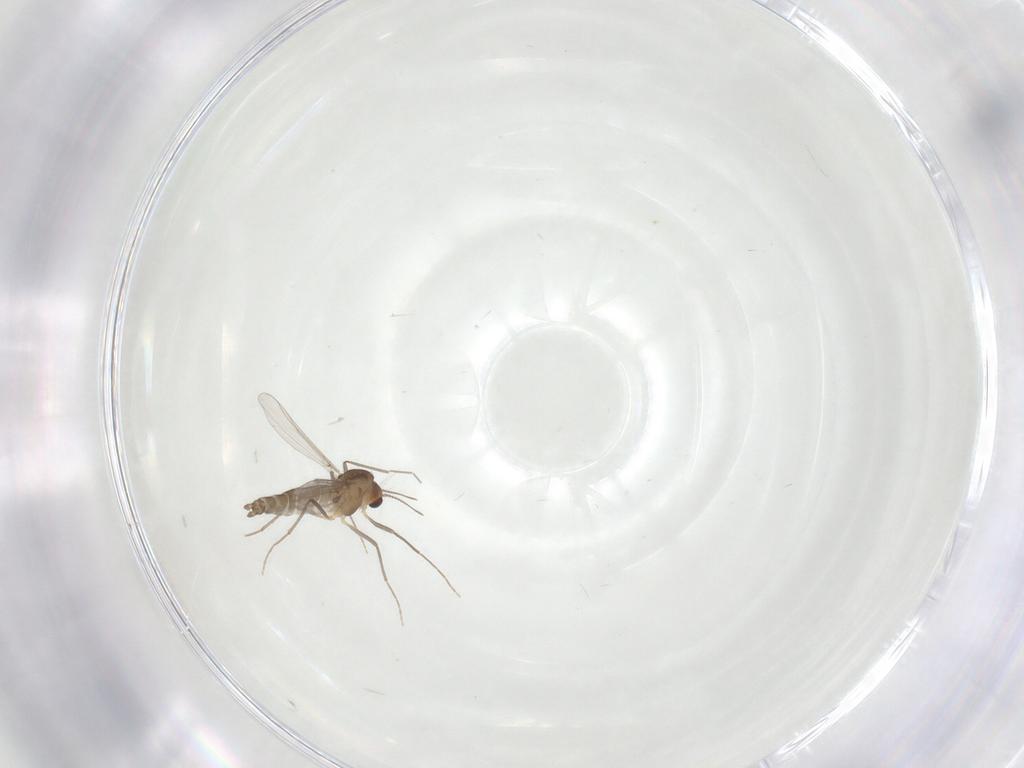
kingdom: Animalia
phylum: Arthropoda
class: Insecta
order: Diptera
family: Chironomidae
